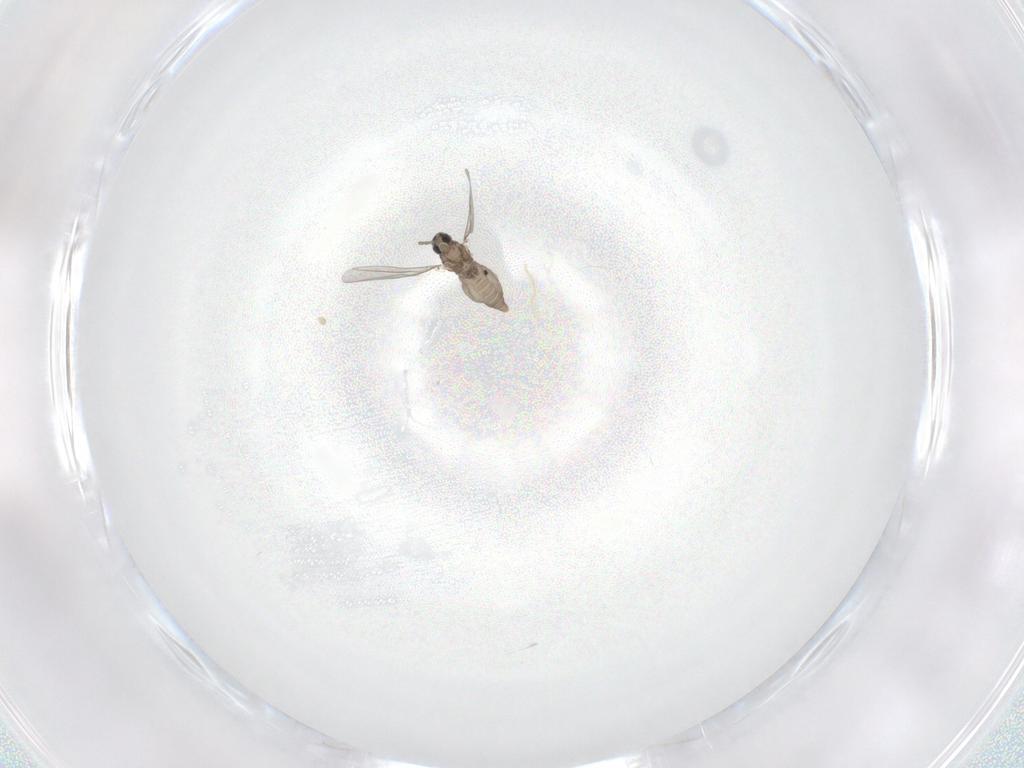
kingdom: Animalia
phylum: Arthropoda
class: Insecta
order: Diptera
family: Cecidomyiidae
